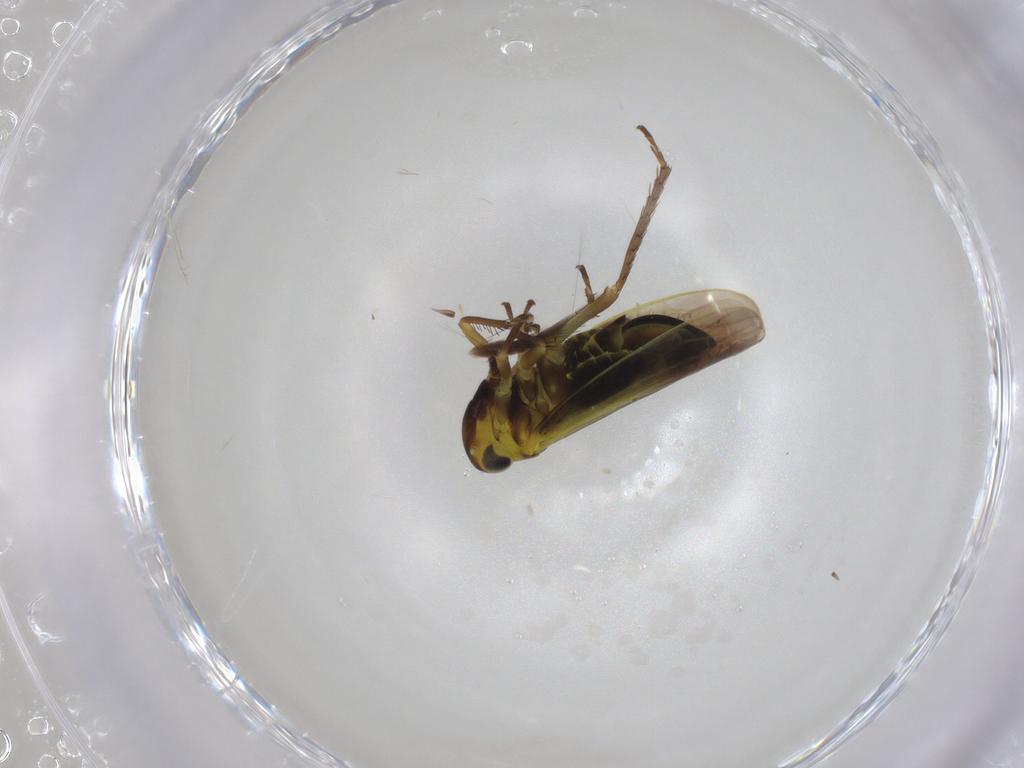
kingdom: Animalia
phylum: Arthropoda
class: Insecta
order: Hemiptera
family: Cicadellidae
